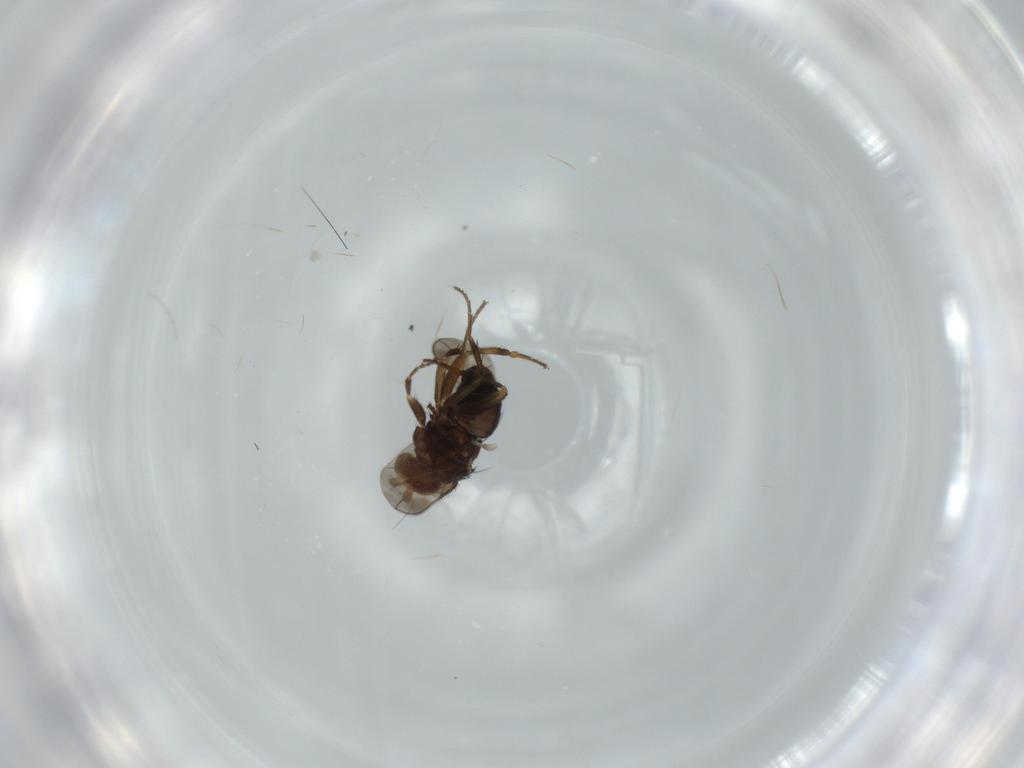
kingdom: Animalia
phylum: Arthropoda
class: Insecta
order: Diptera
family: Sphaeroceridae
